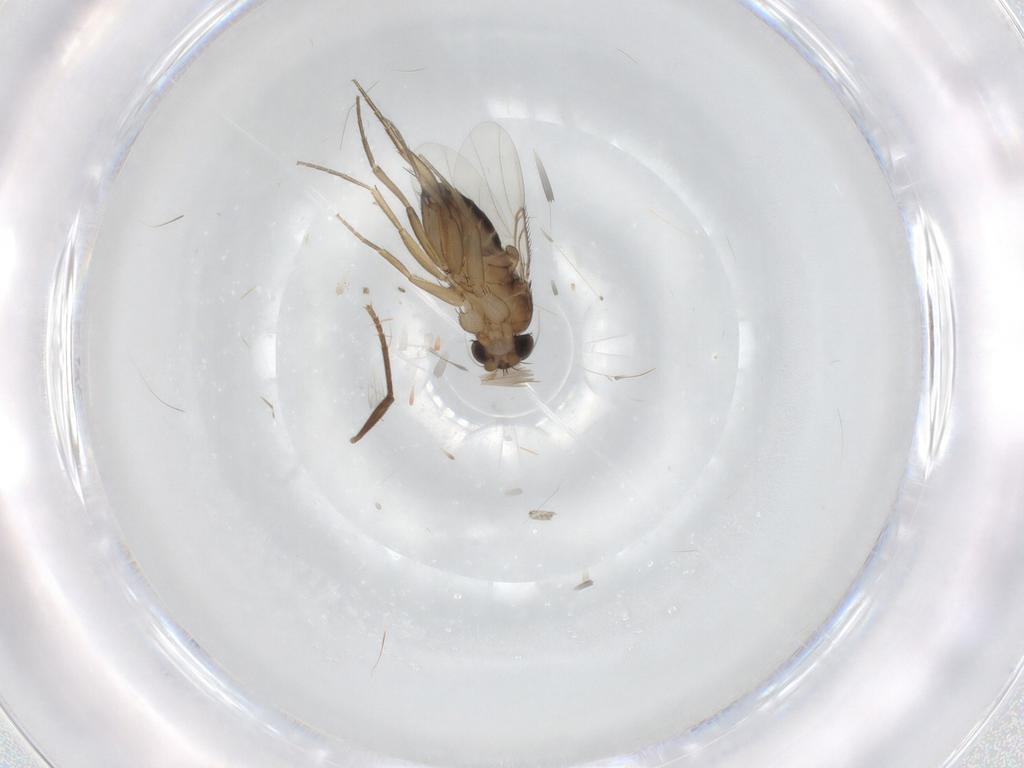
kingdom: Animalia
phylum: Arthropoda
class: Insecta
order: Diptera
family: Cecidomyiidae
